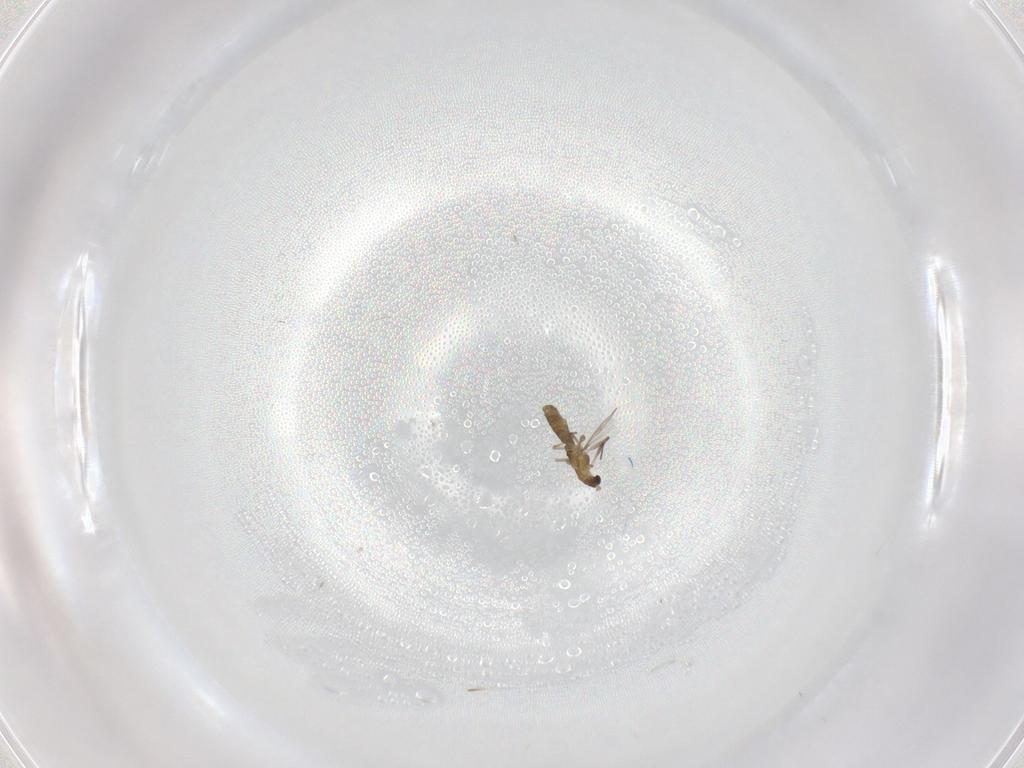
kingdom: Animalia
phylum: Arthropoda
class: Insecta
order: Diptera
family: Chironomidae
